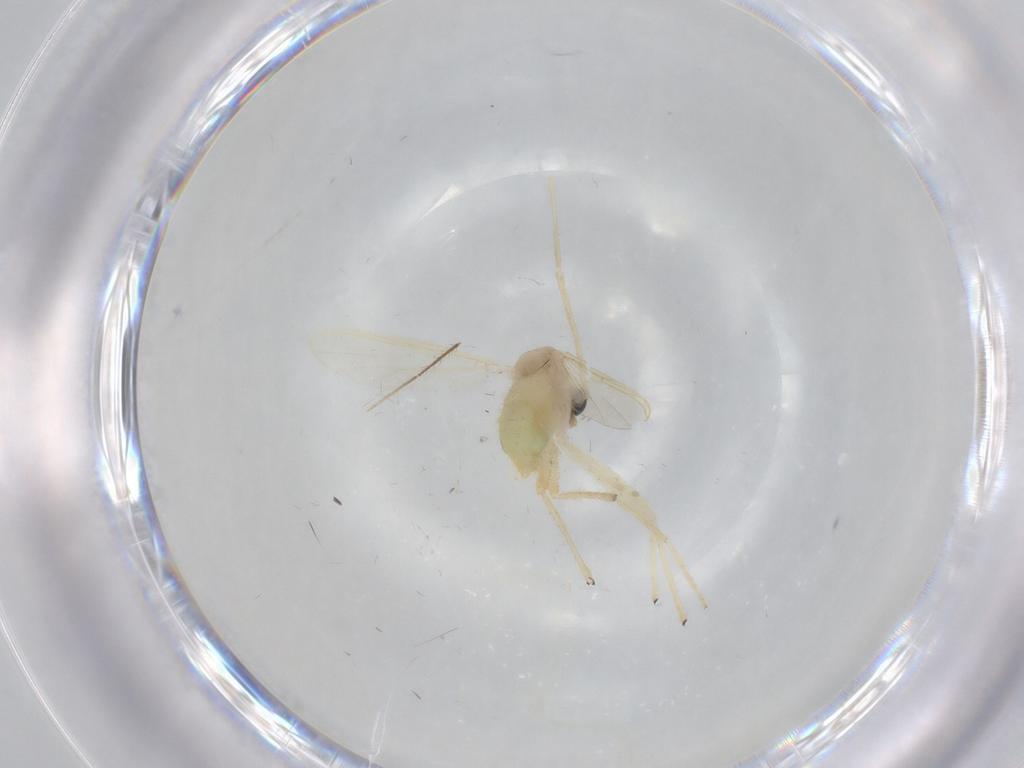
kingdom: Animalia
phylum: Arthropoda
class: Insecta
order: Diptera
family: Chironomidae
